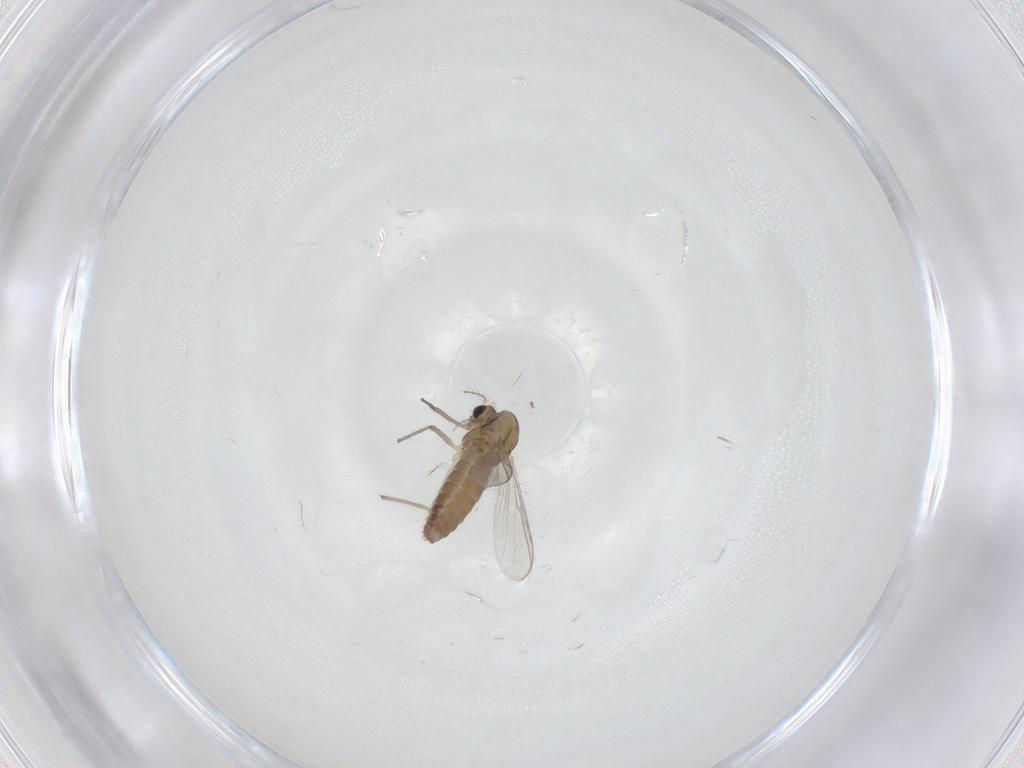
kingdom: Animalia
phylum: Arthropoda
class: Insecta
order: Diptera
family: Chironomidae
